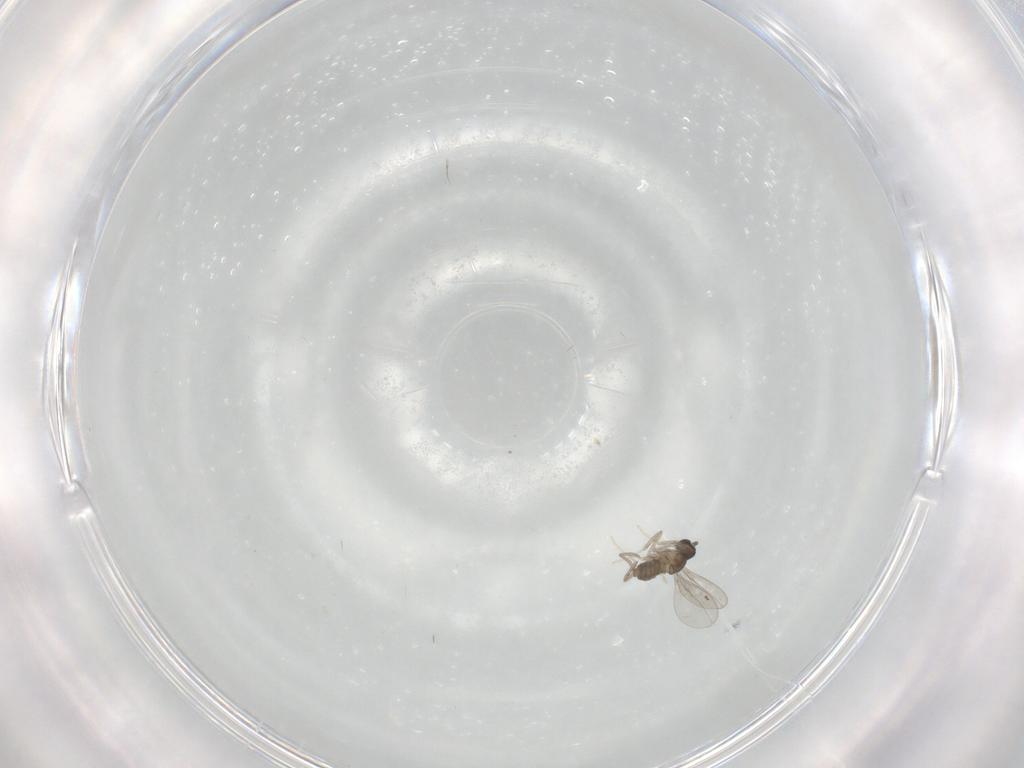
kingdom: Animalia
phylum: Arthropoda
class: Insecta
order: Diptera
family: Cecidomyiidae
